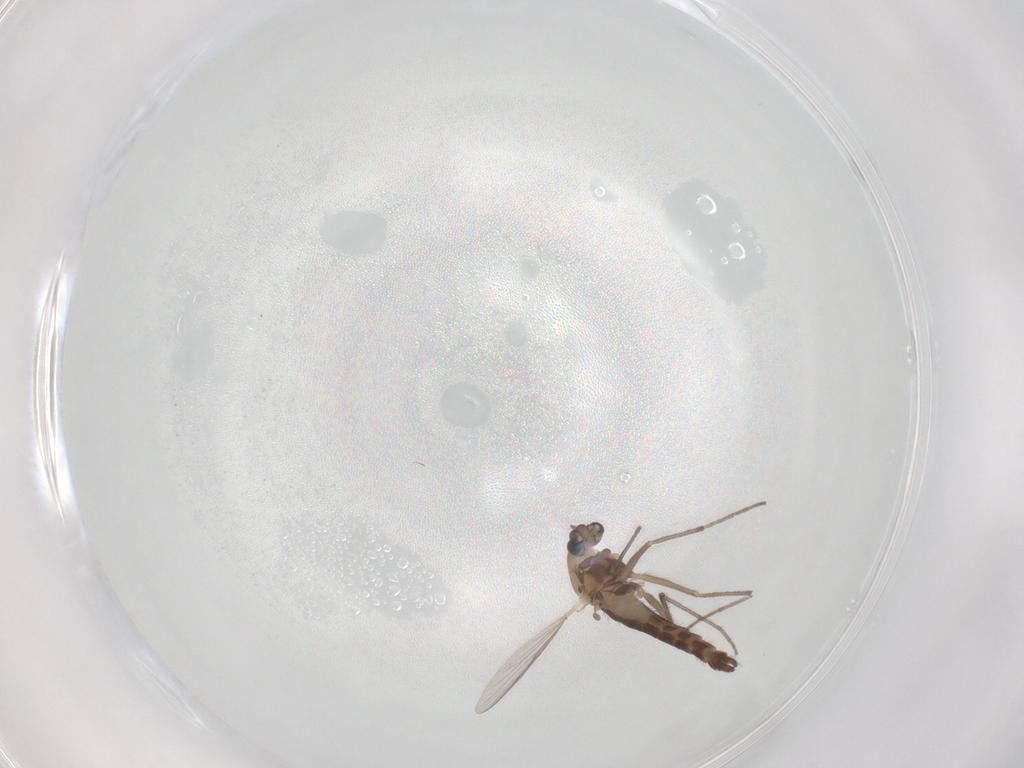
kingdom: Animalia
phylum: Arthropoda
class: Insecta
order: Diptera
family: Chironomidae
